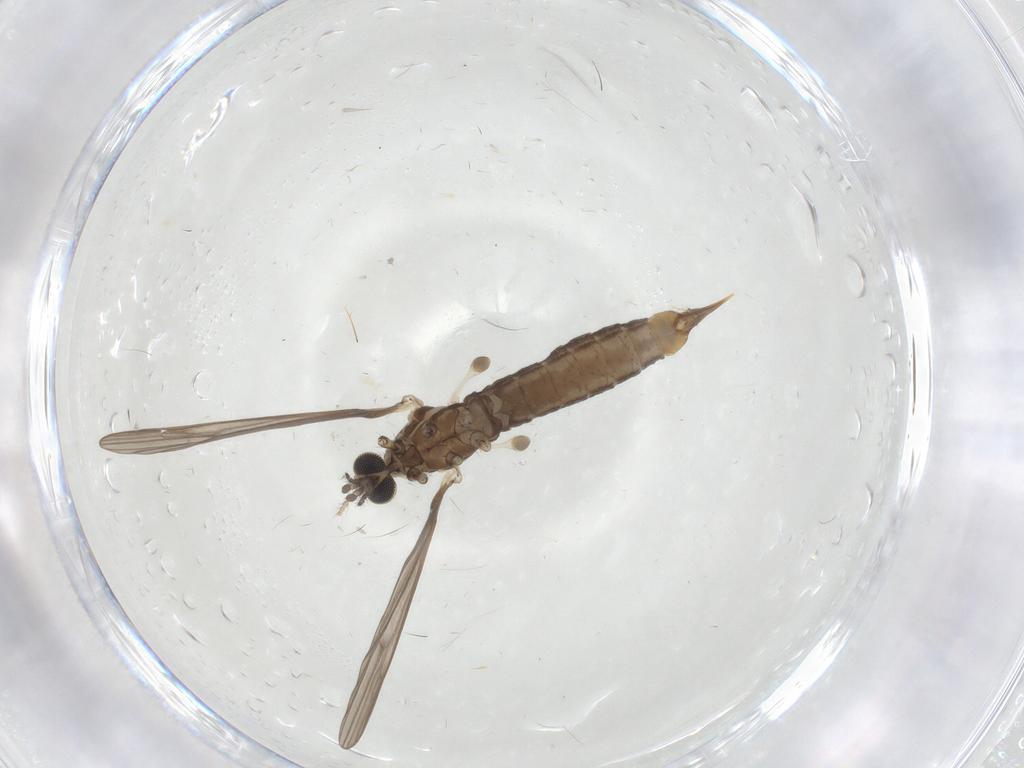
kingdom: Animalia
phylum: Arthropoda
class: Insecta
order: Diptera
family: Limoniidae
